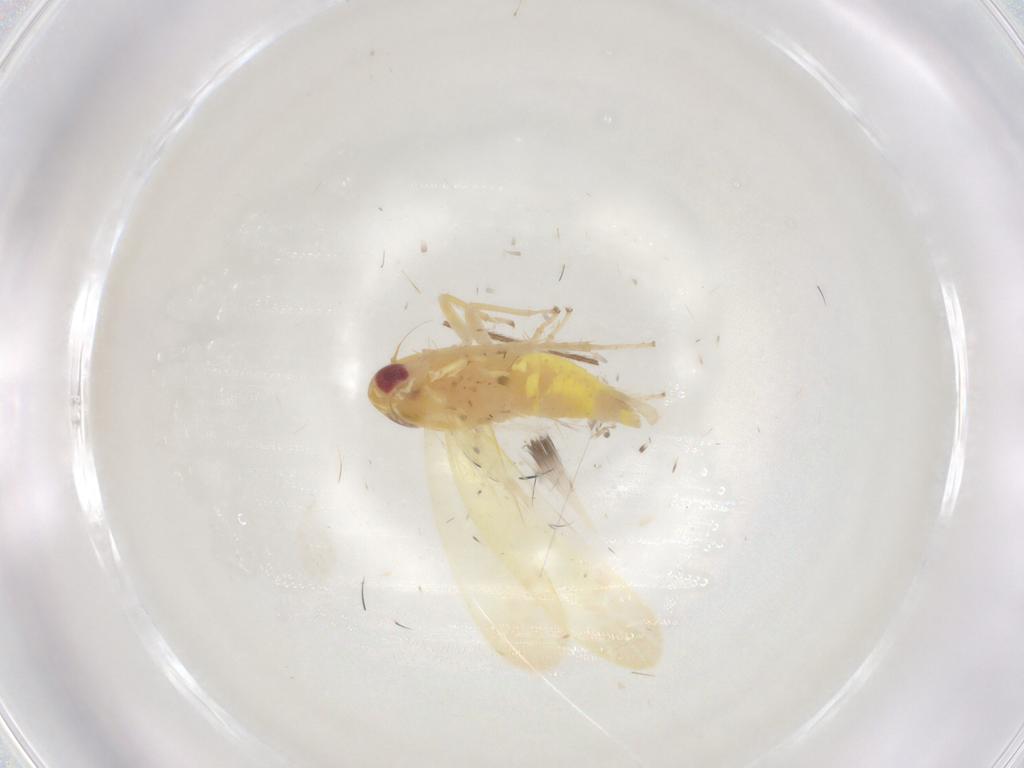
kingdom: Animalia
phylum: Arthropoda
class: Insecta
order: Hemiptera
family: Cicadellidae
